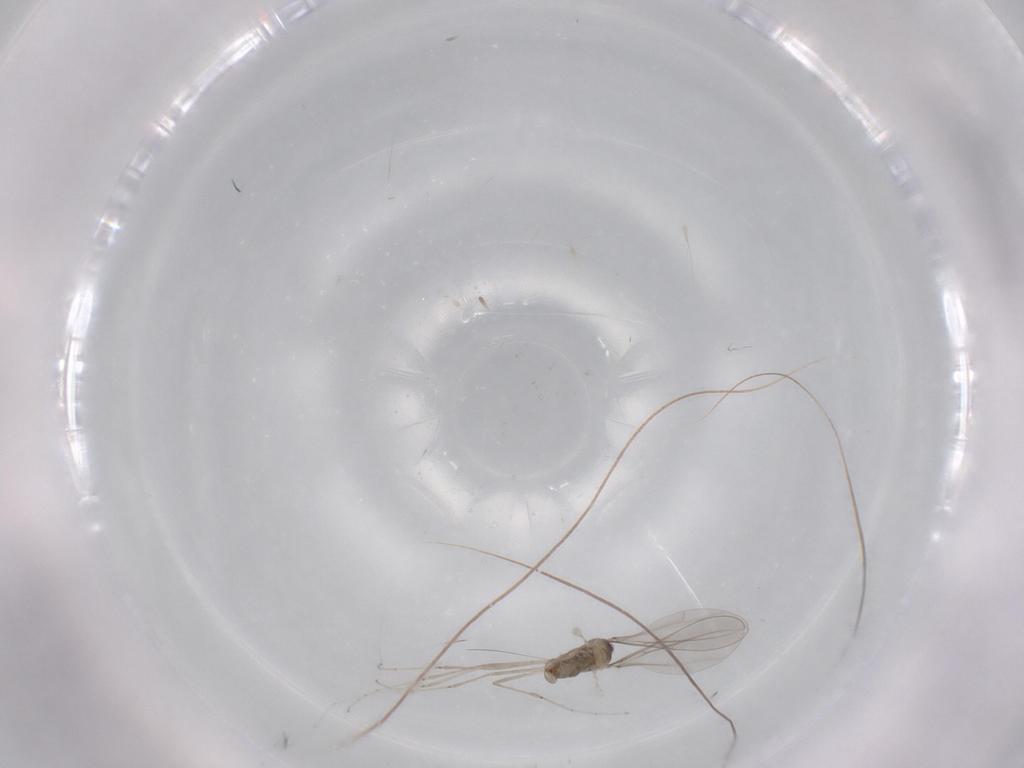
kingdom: Animalia
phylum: Arthropoda
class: Insecta
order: Diptera
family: Cecidomyiidae
